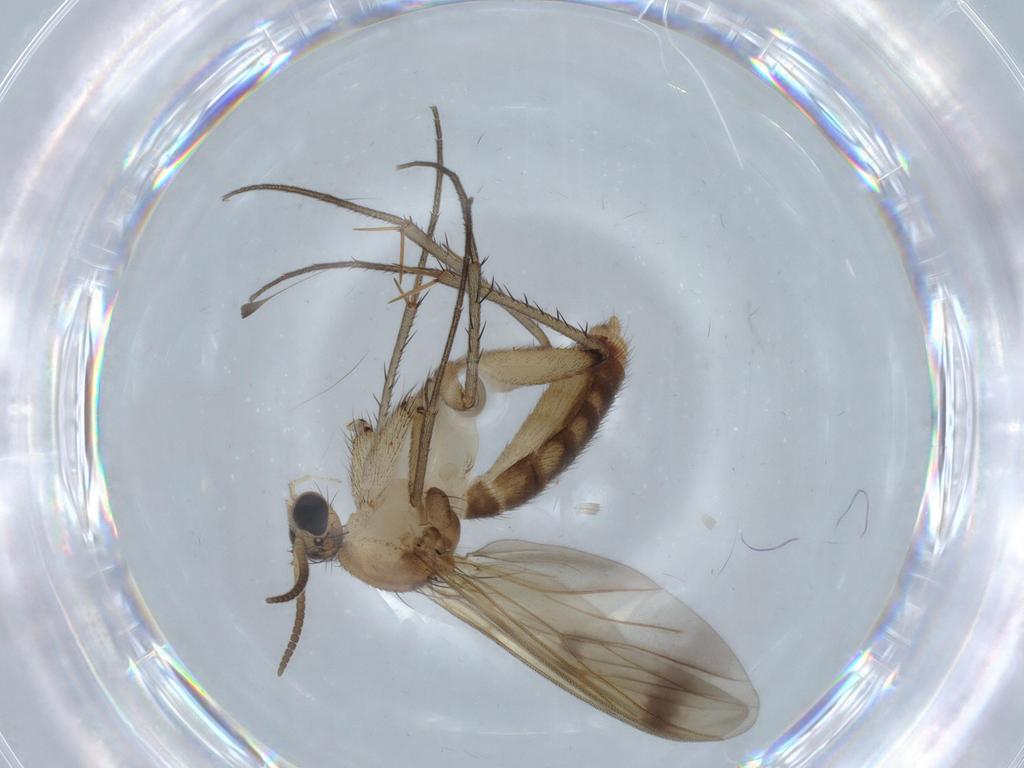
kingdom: Animalia
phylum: Arthropoda
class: Insecta
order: Diptera
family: Mycetophilidae
